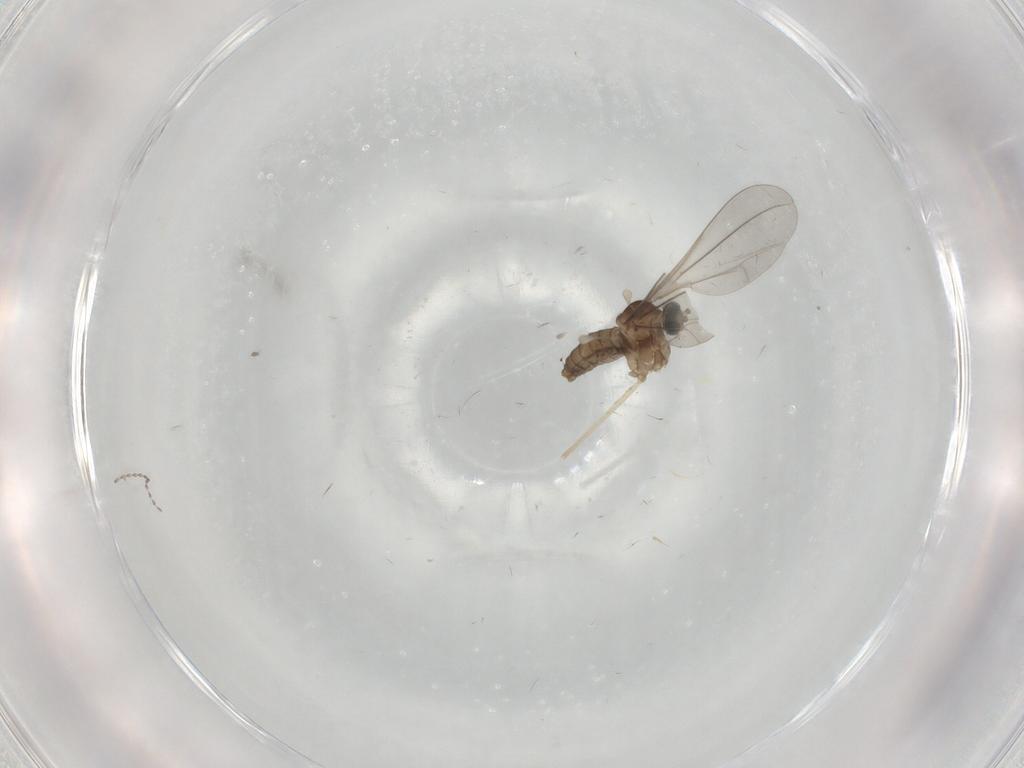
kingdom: Animalia
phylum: Arthropoda
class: Insecta
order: Diptera
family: Cecidomyiidae
